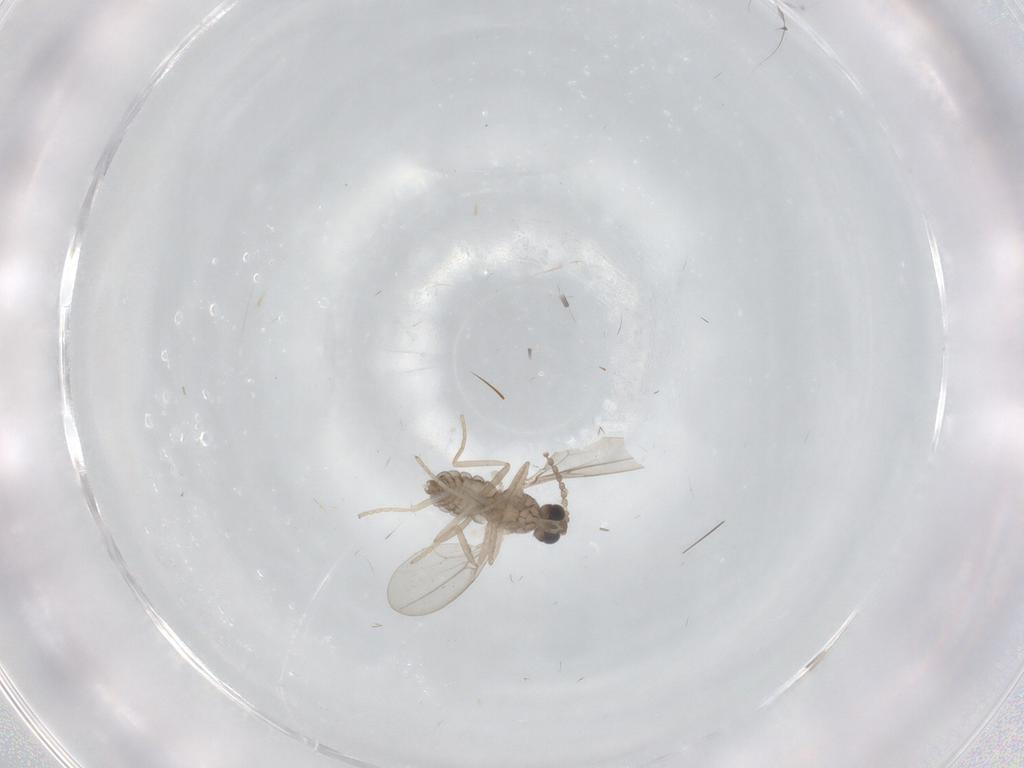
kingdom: Animalia
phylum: Arthropoda
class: Insecta
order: Diptera
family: Cecidomyiidae
